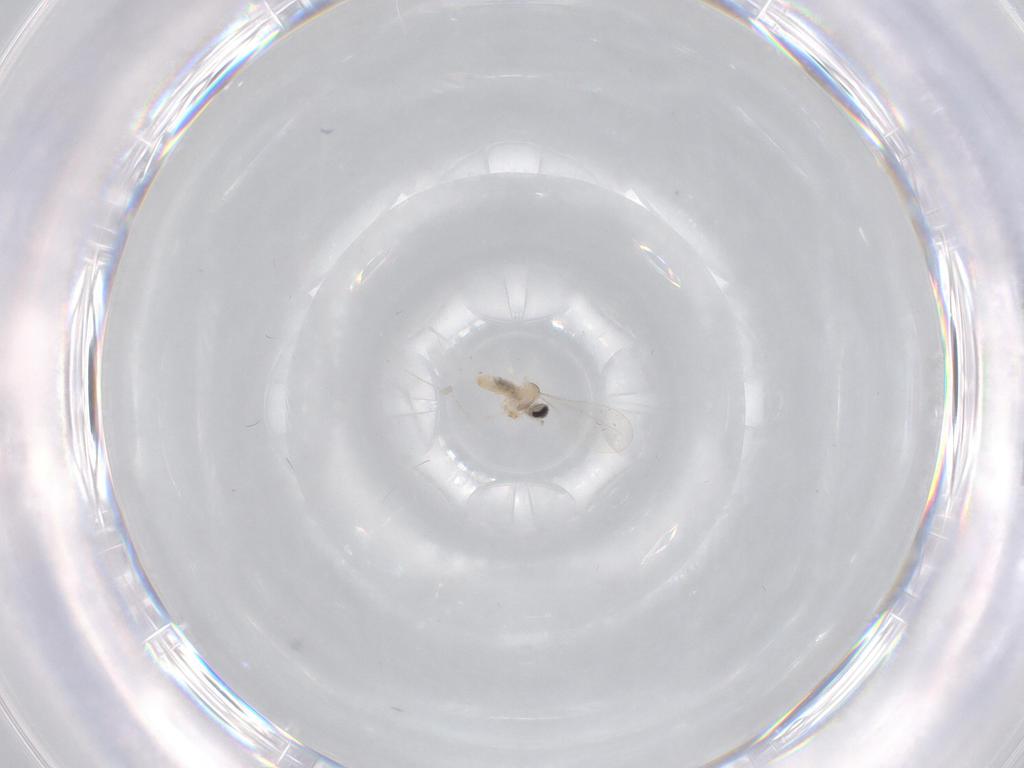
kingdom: Animalia
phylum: Arthropoda
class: Insecta
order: Diptera
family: Cecidomyiidae
